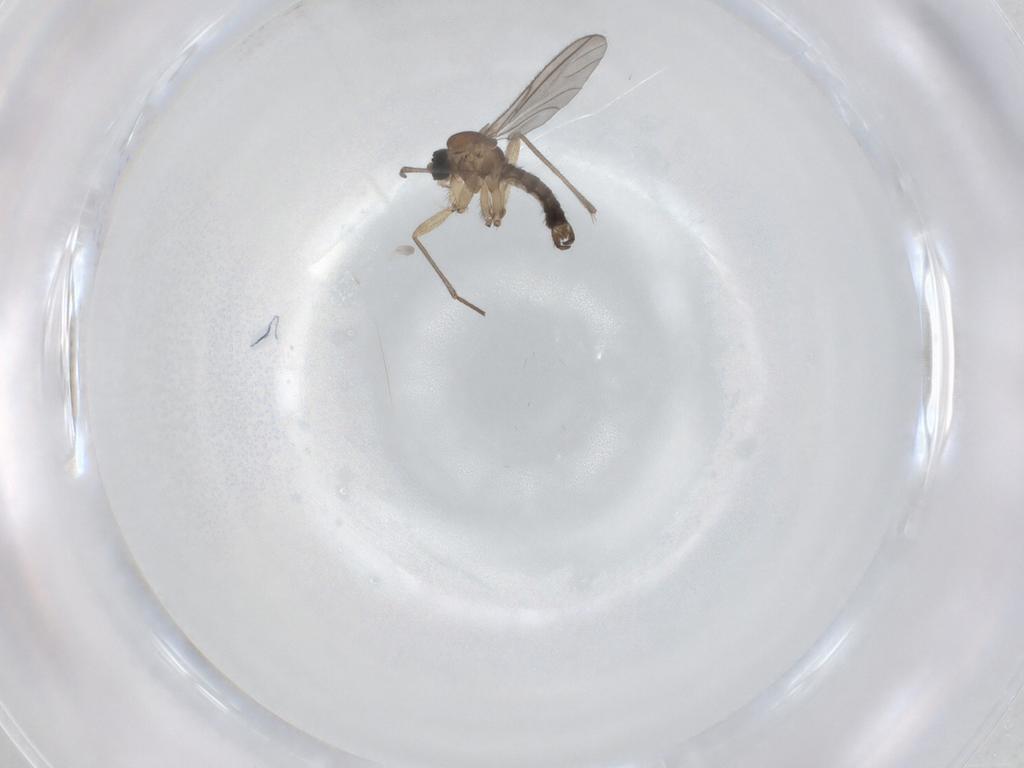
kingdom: Animalia
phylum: Arthropoda
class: Insecta
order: Diptera
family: Sciaridae
